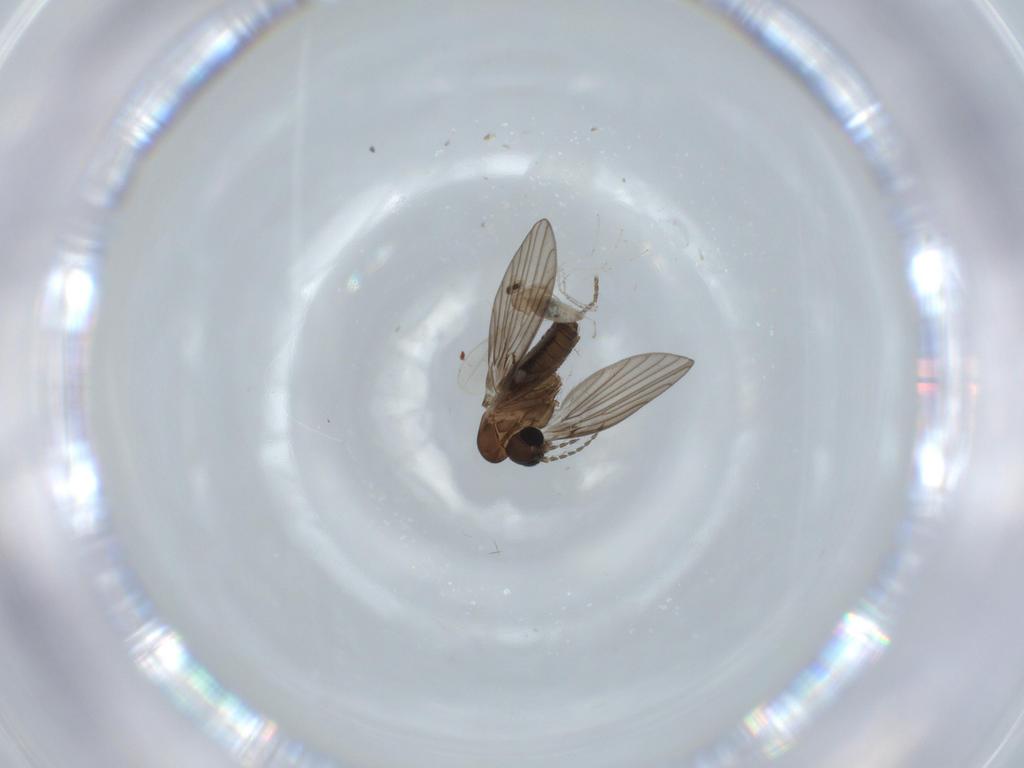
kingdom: Animalia
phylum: Arthropoda
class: Insecta
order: Diptera
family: Psychodidae
